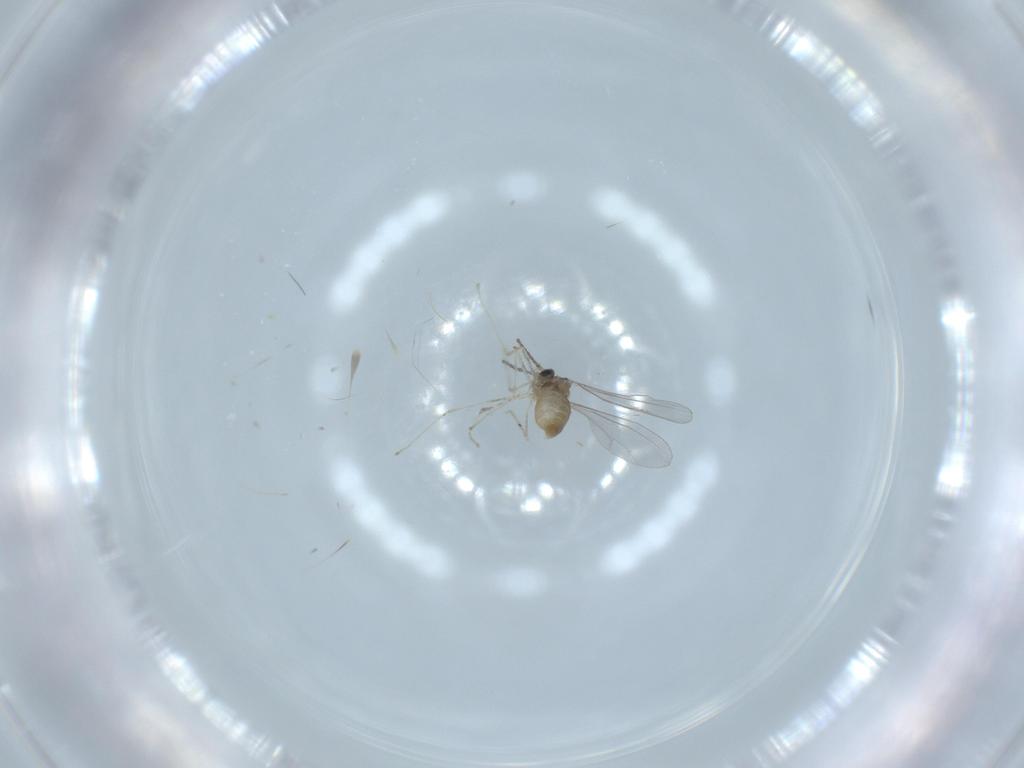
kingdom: Animalia
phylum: Arthropoda
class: Insecta
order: Diptera
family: Cecidomyiidae
